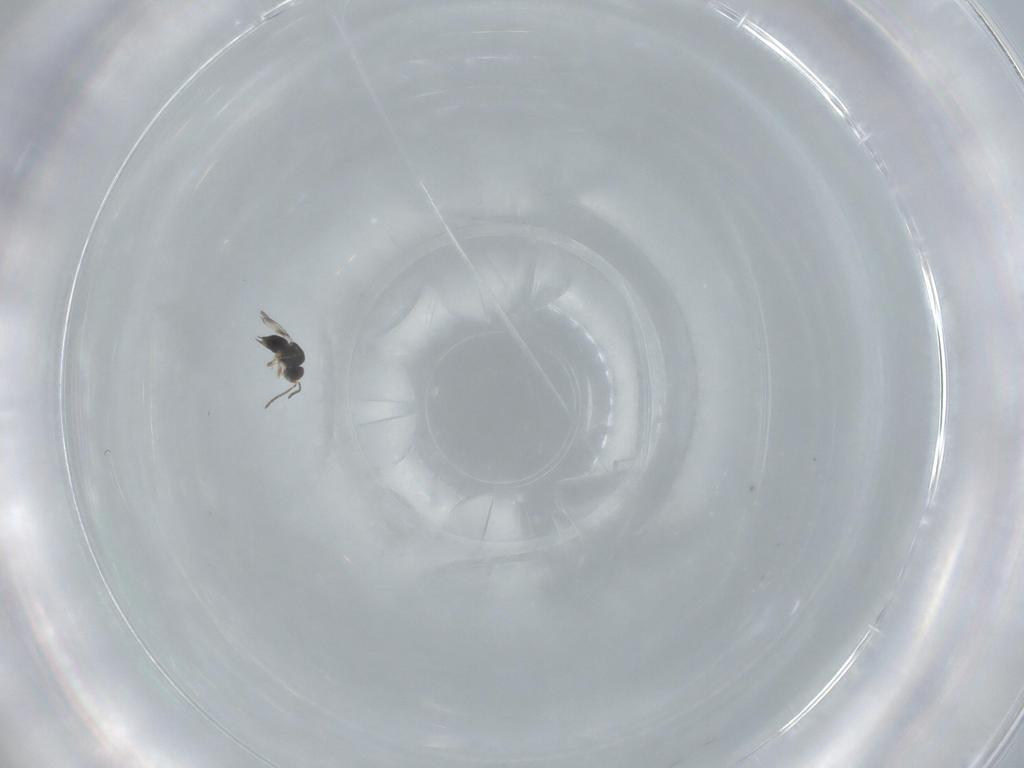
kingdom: Animalia
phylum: Arthropoda
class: Insecta
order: Hymenoptera
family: Ceraphronidae
